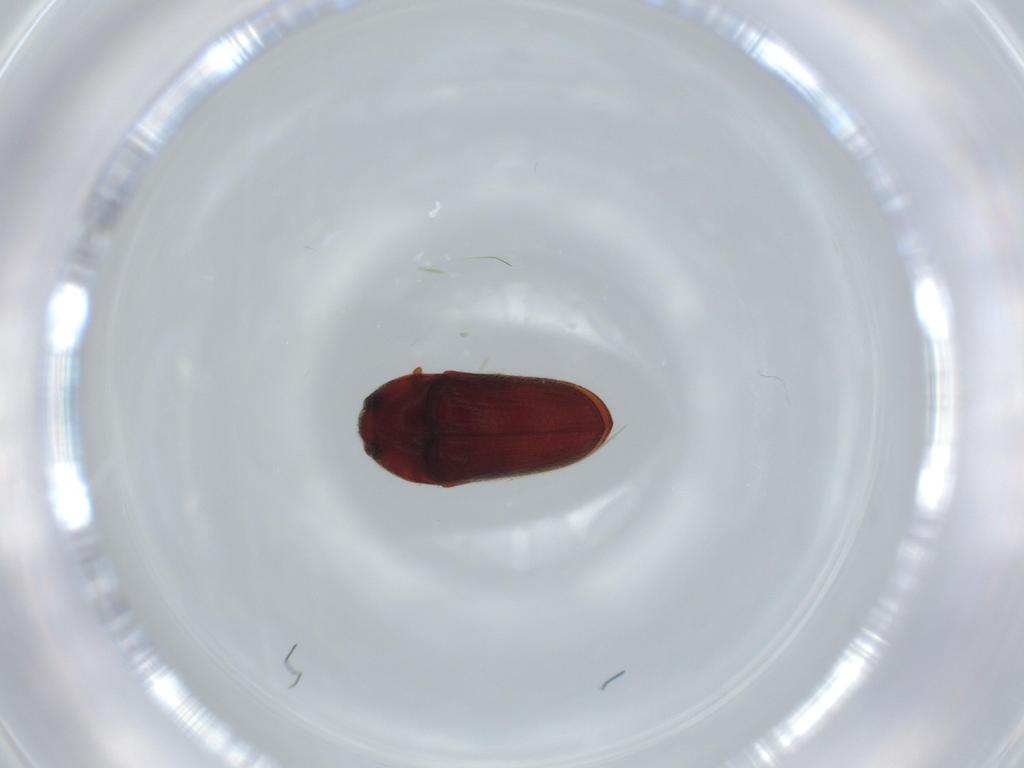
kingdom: Animalia
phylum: Arthropoda
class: Insecta
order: Coleoptera
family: Throscidae
